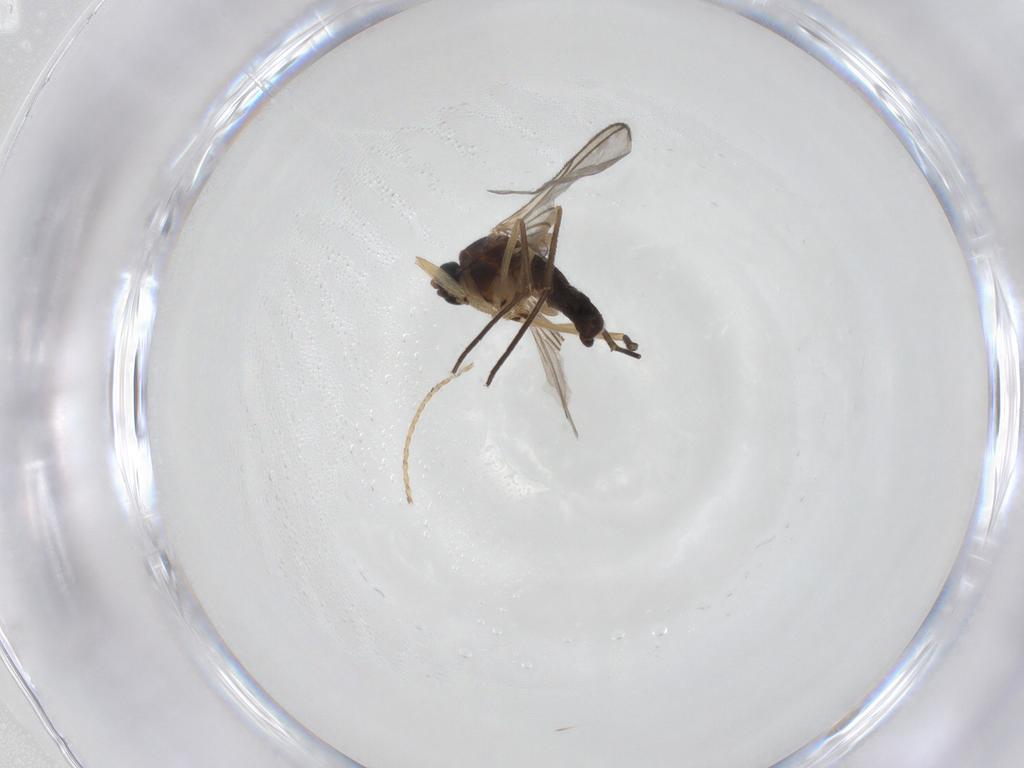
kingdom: Animalia
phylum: Arthropoda
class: Insecta
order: Diptera
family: Sciaridae
